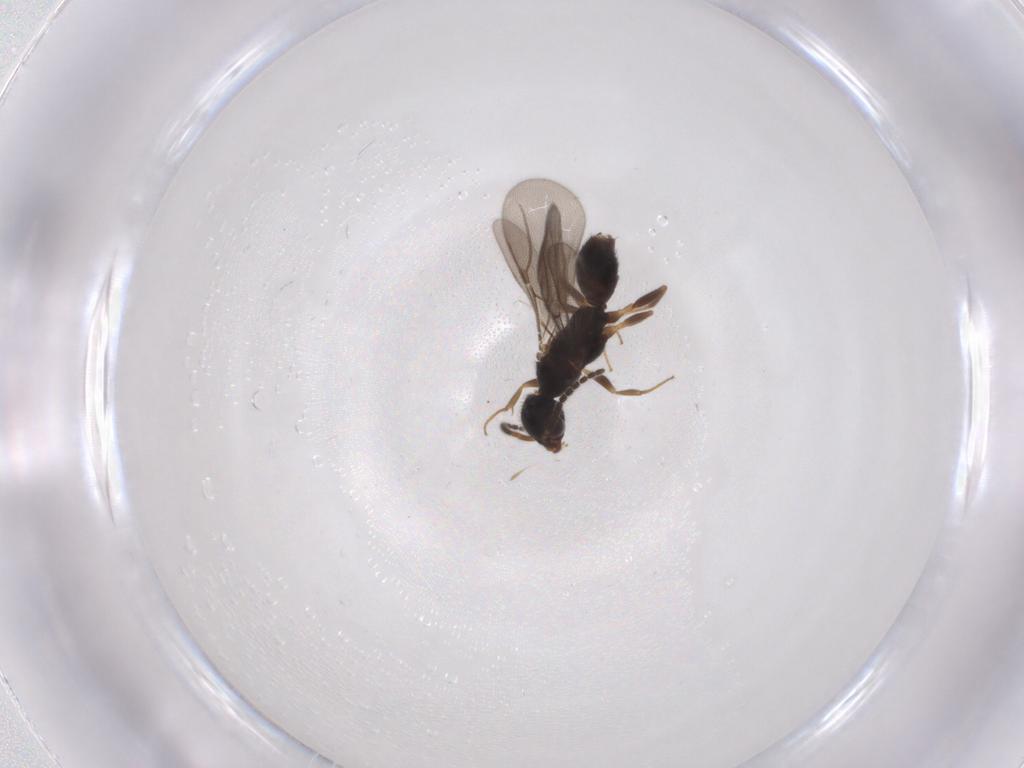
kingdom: Animalia
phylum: Arthropoda
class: Insecta
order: Hymenoptera
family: Bethylidae
